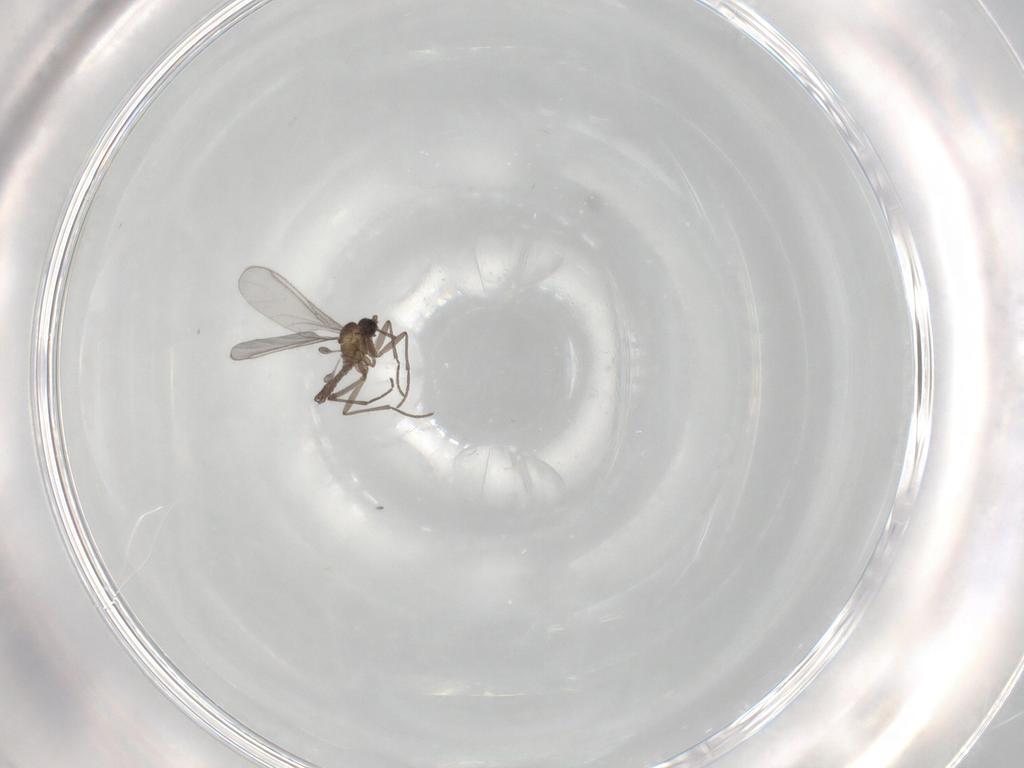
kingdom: Animalia
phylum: Arthropoda
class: Insecta
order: Diptera
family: Sciaridae
